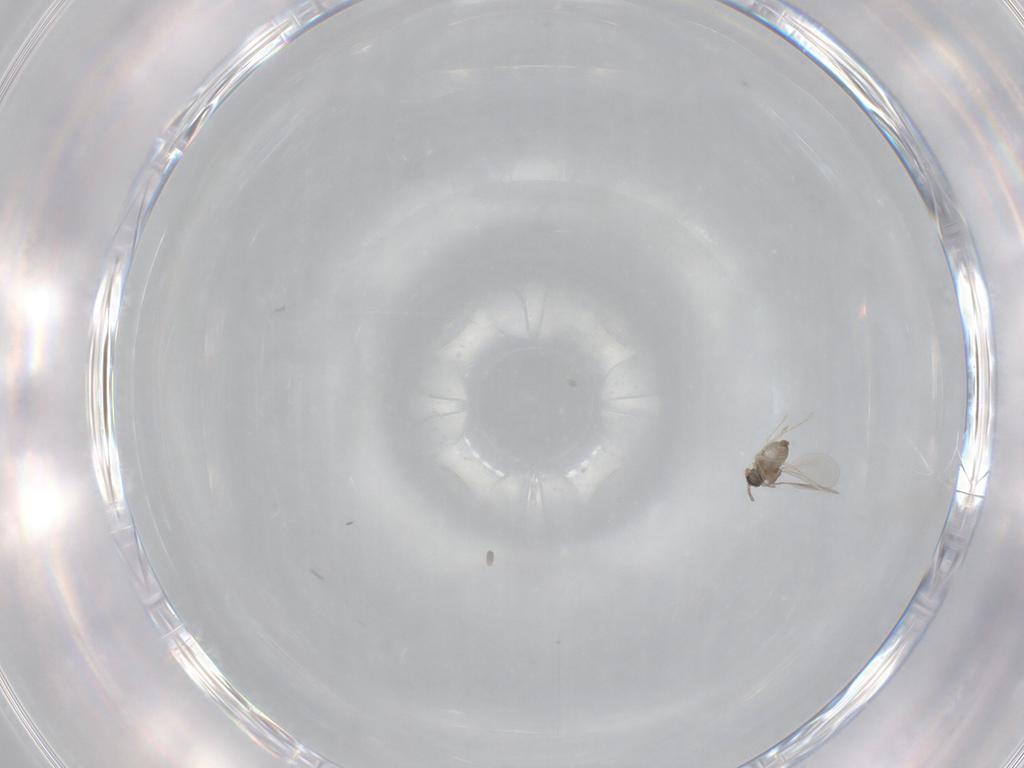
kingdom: Animalia
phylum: Arthropoda
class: Insecta
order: Diptera
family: Cecidomyiidae
